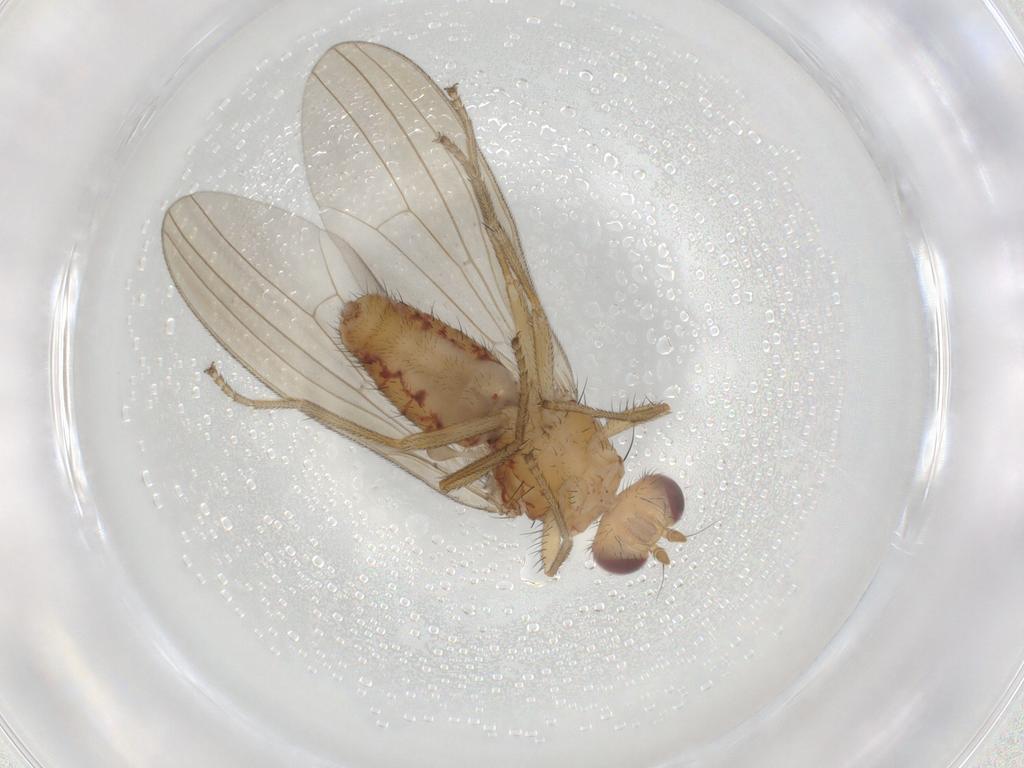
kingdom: Animalia
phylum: Arthropoda
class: Insecta
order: Diptera
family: Natalimyzidae
